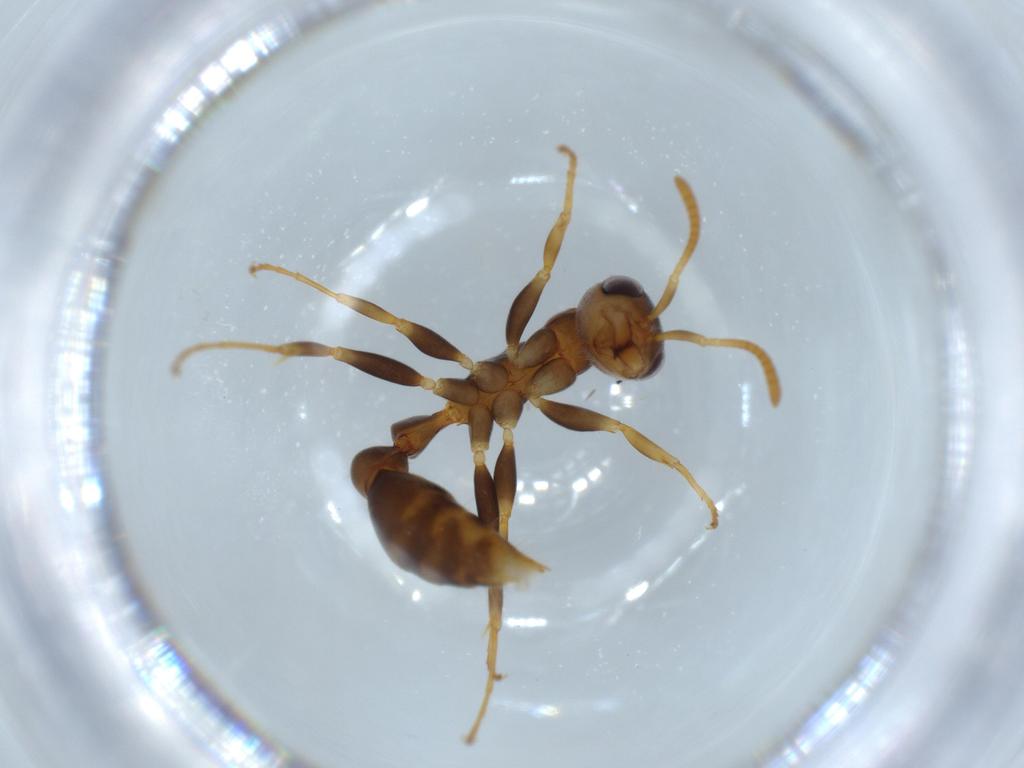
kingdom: Animalia
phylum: Arthropoda
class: Insecta
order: Hymenoptera
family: Formicidae
